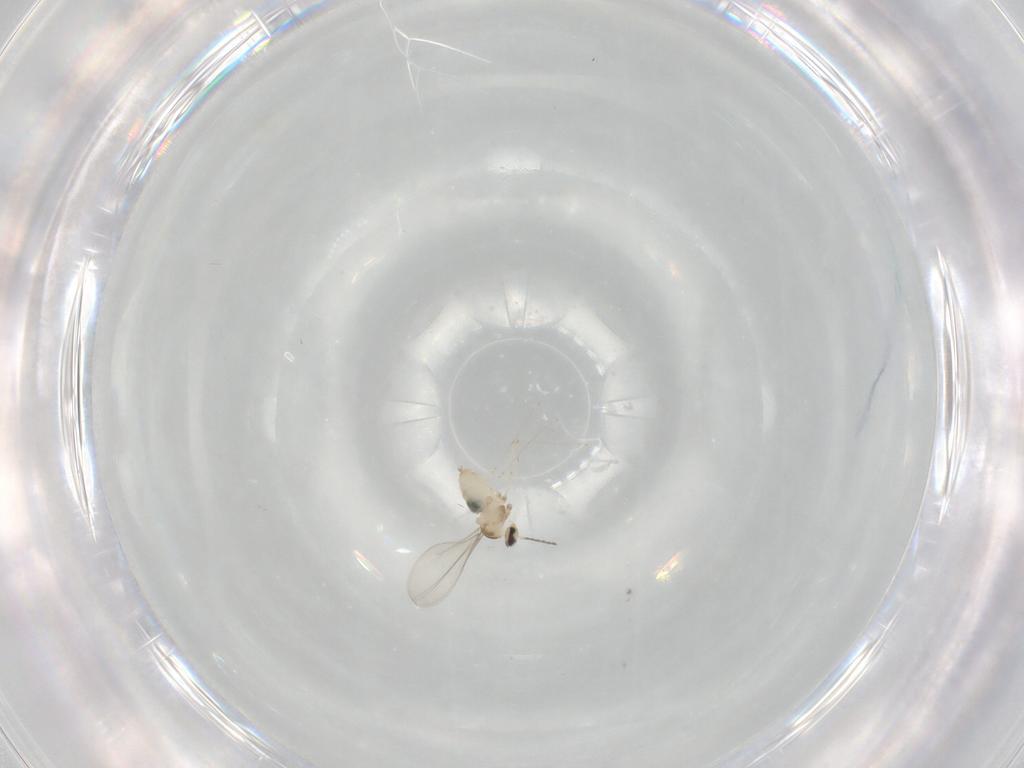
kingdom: Animalia
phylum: Arthropoda
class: Insecta
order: Diptera
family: Cecidomyiidae
